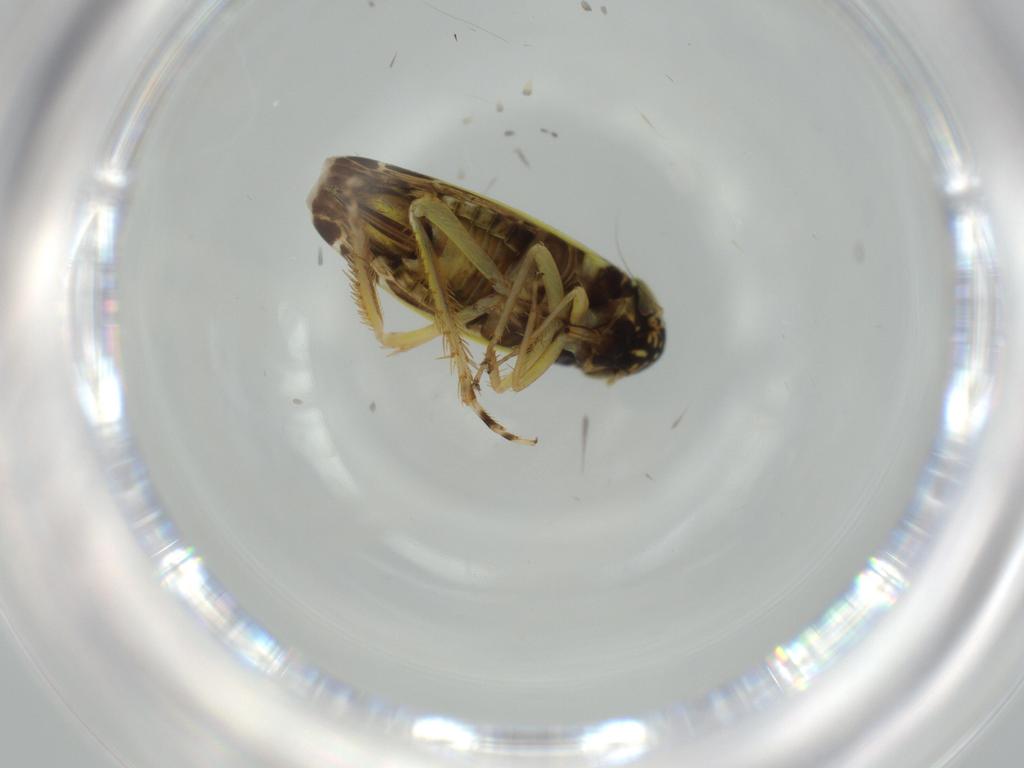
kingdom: Animalia
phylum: Arthropoda
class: Insecta
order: Hemiptera
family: Cicadellidae
